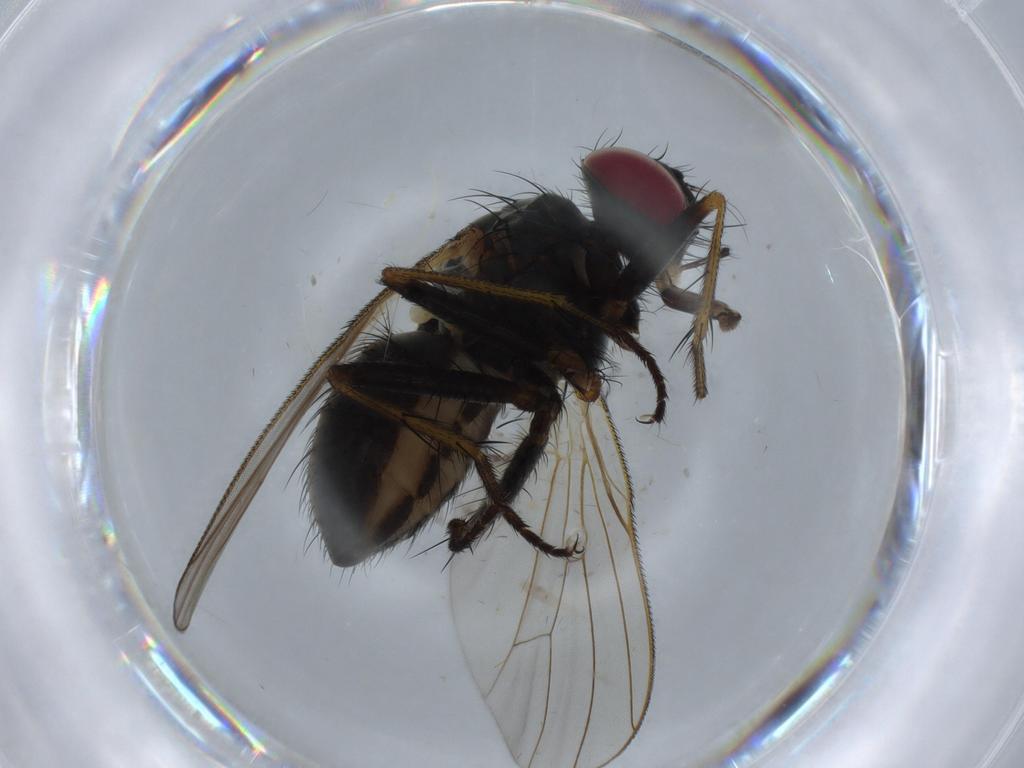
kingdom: Animalia
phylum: Arthropoda
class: Insecta
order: Diptera
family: Muscidae
